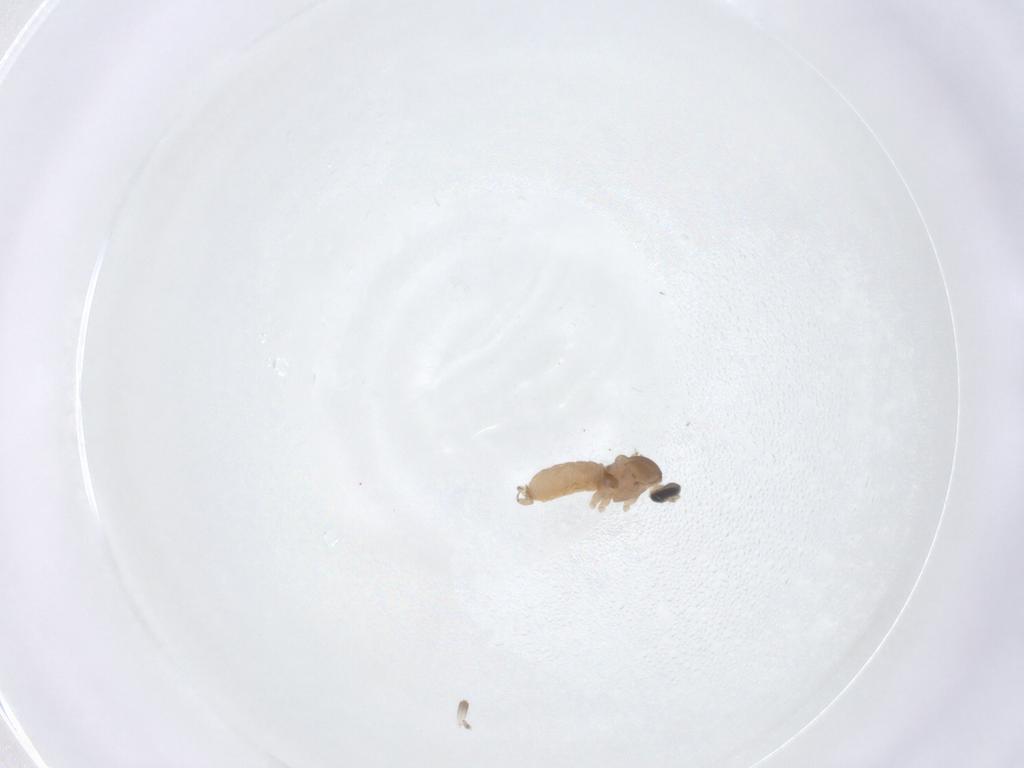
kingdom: Animalia
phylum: Arthropoda
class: Insecta
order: Diptera
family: Cecidomyiidae
